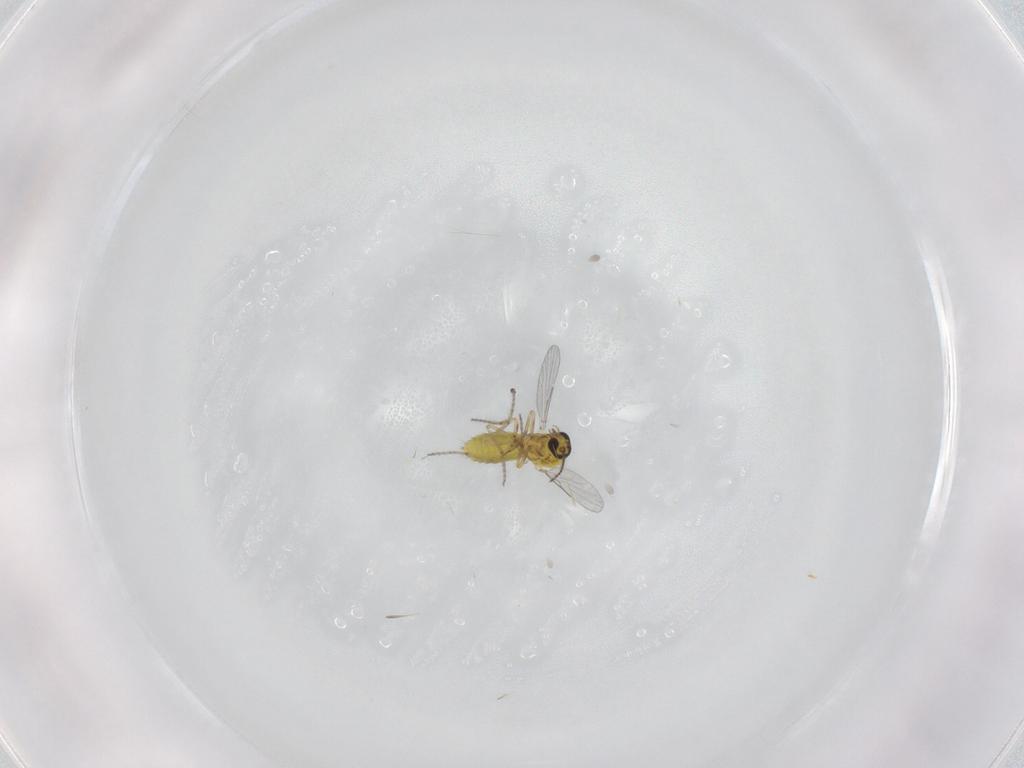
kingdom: Animalia
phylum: Arthropoda
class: Insecta
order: Diptera
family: Ceratopogonidae
